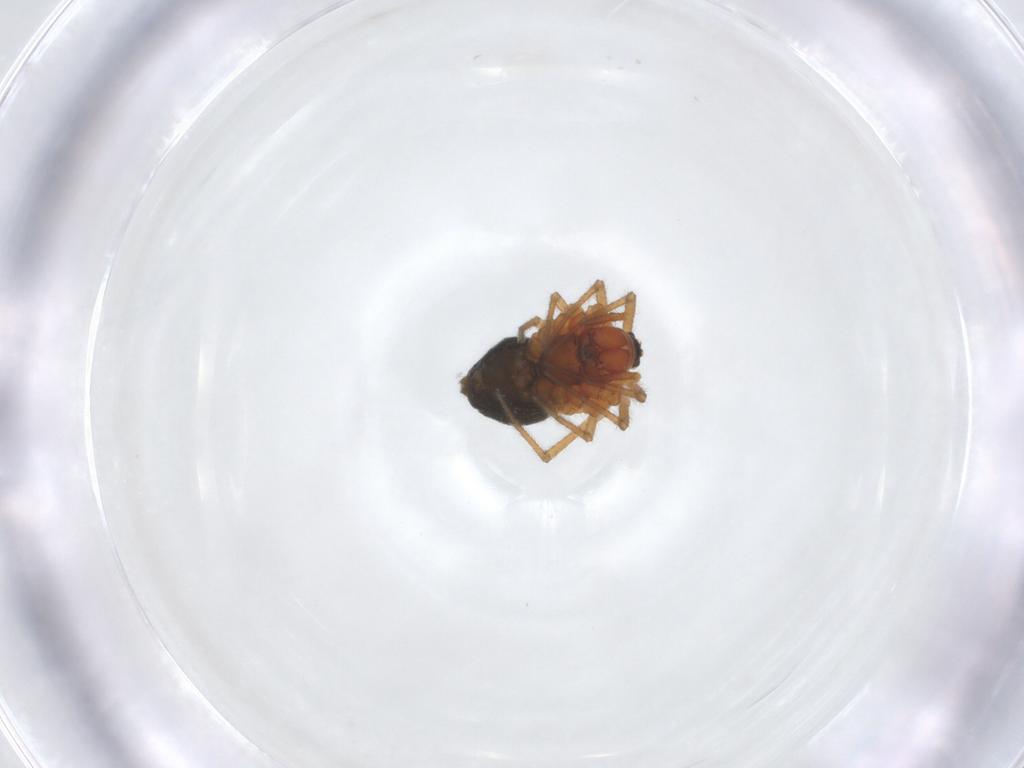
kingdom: Animalia
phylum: Arthropoda
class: Arachnida
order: Araneae
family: Linyphiidae
